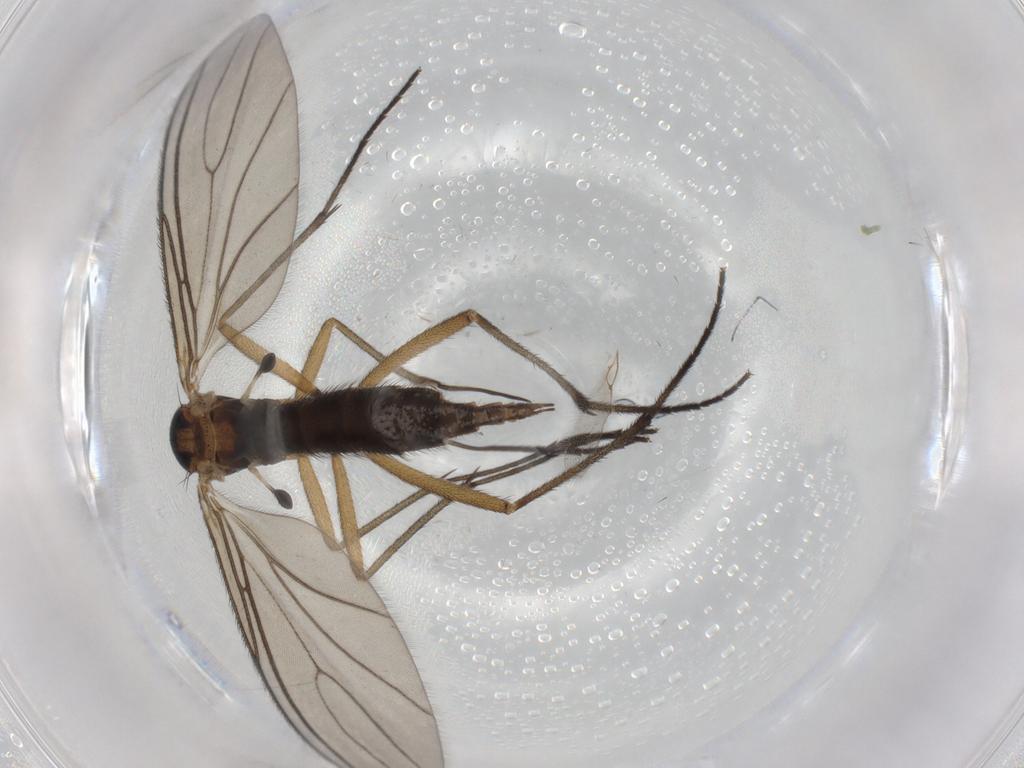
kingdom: Animalia
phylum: Arthropoda
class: Insecta
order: Diptera
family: Sciaridae
